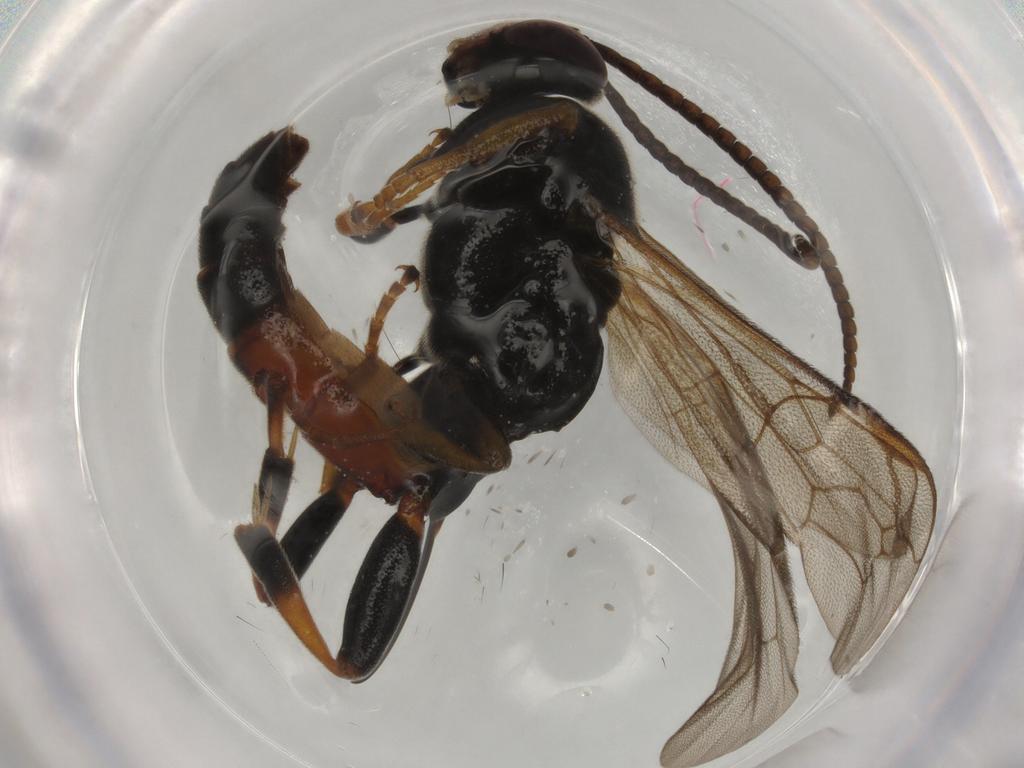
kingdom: Animalia
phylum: Arthropoda
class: Insecta
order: Hymenoptera
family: Ichneumonidae
